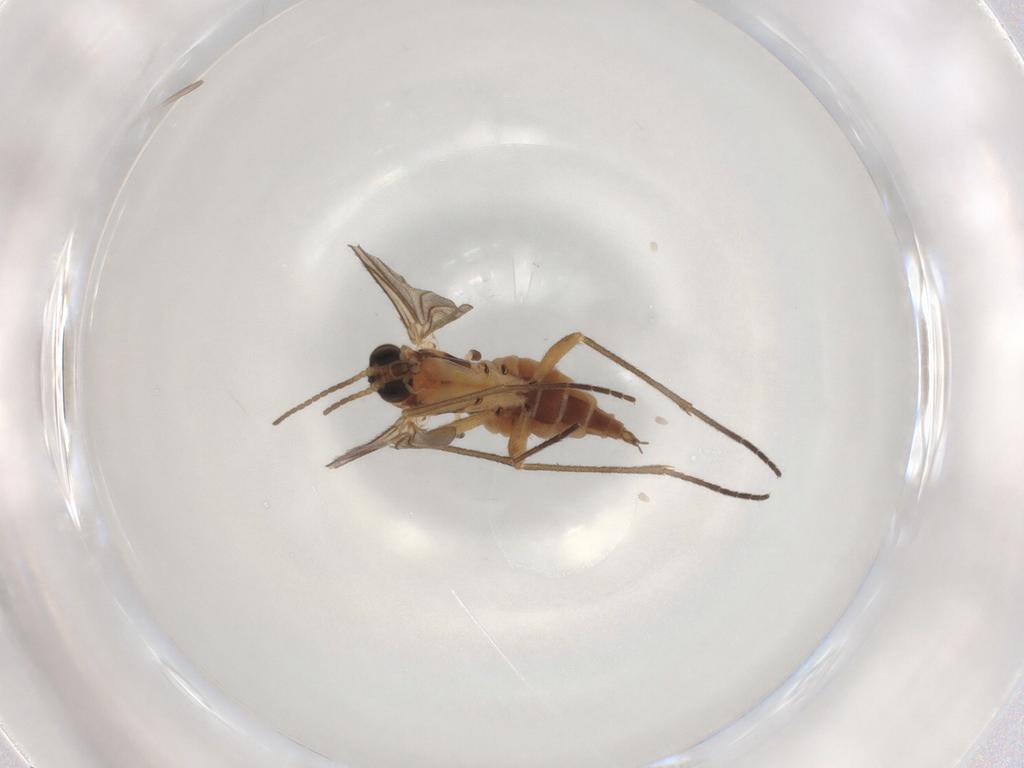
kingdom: Animalia
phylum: Arthropoda
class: Insecta
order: Diptera
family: Sciaridae
